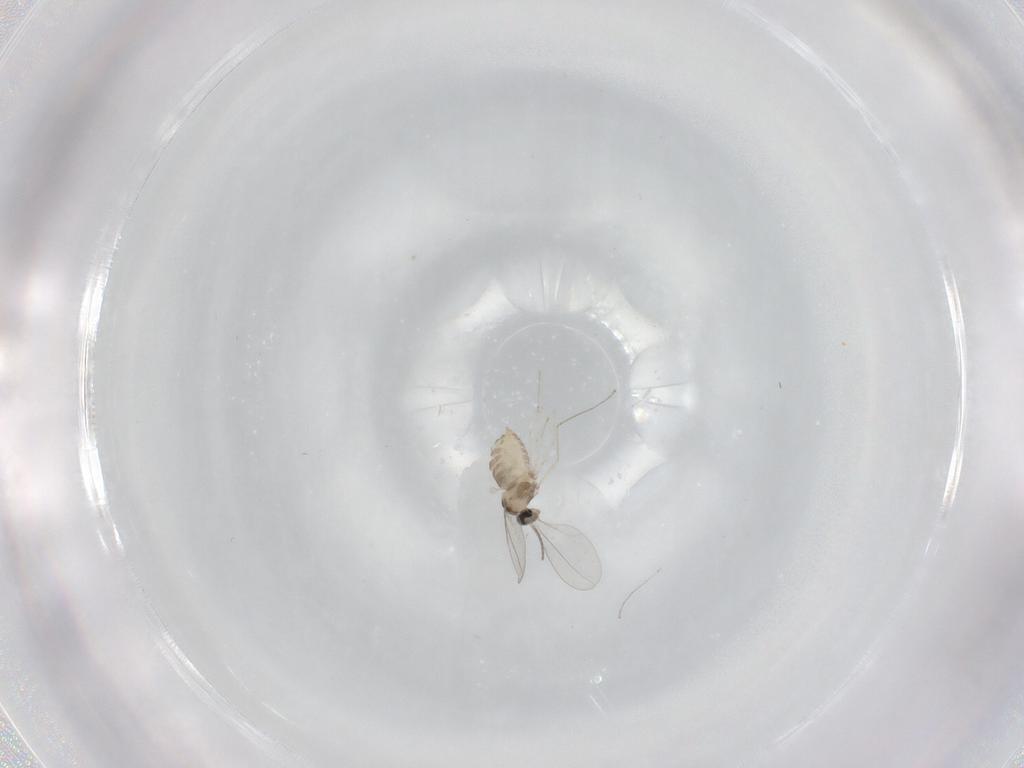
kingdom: Animalia
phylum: Arthropoda
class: Insecta
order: Diptera
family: Cecidomyiidae
